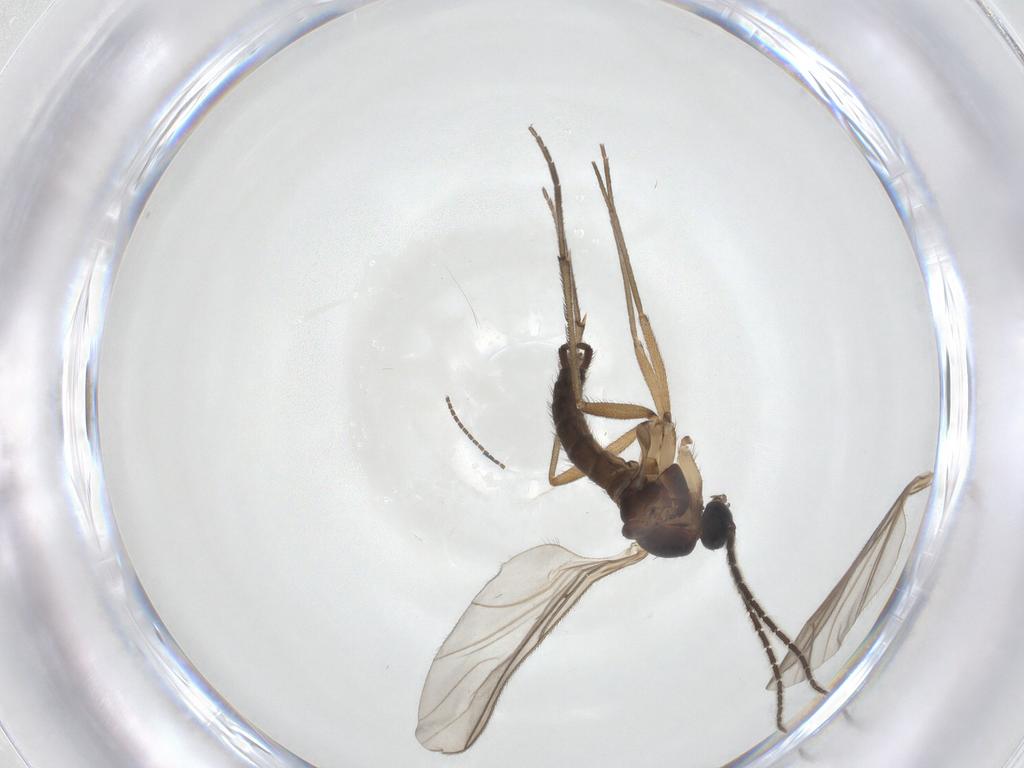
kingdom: Animalia
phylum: Arthropoda
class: Insecta
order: Diptera
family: Sciaridae
